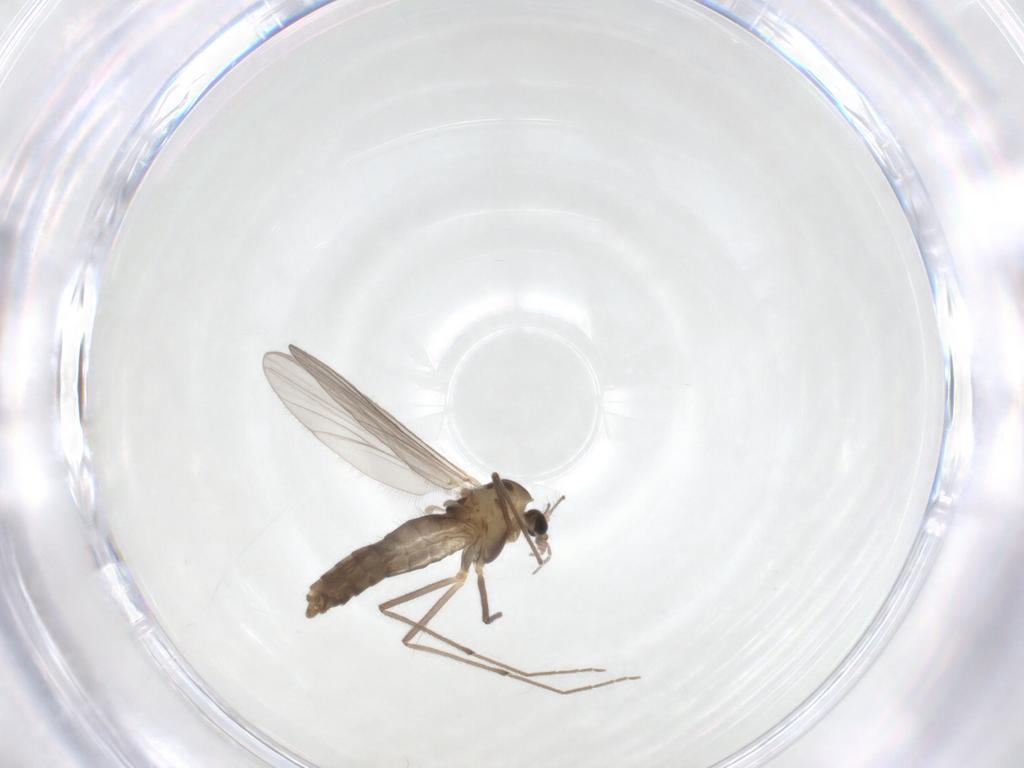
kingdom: Animalia
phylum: Arthropoda
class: Insecta
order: Diptera
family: Chironomidae
